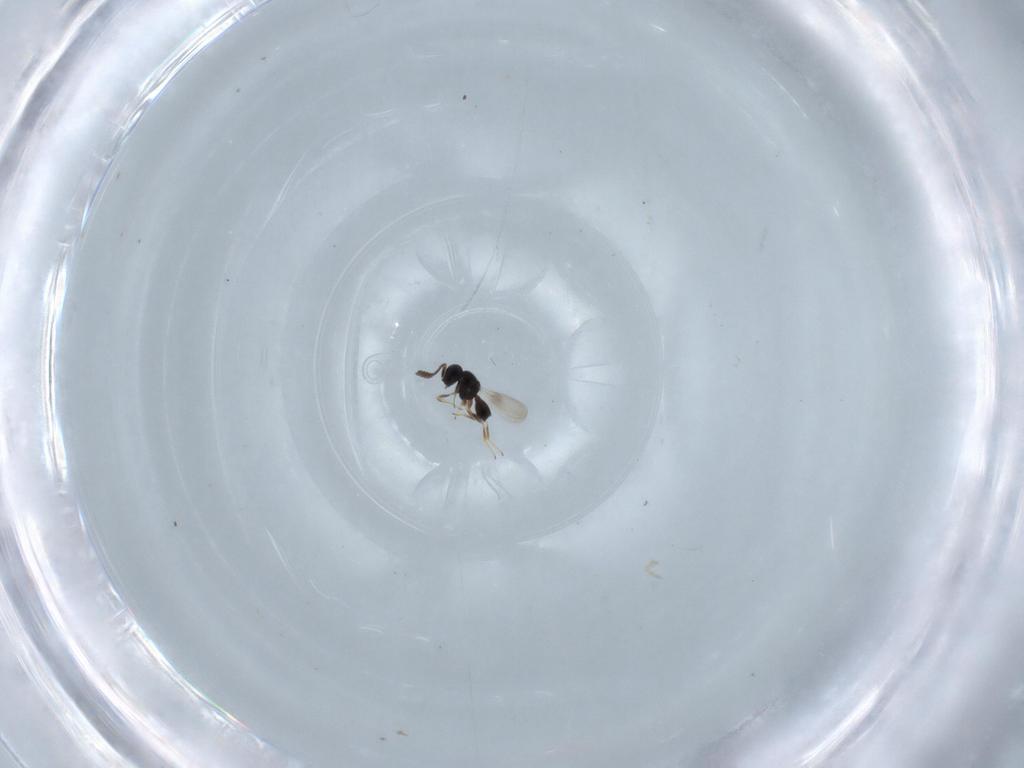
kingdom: Animalia
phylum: Arthropoda
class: Insecta
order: Hymenoptera
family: Scelionidae
